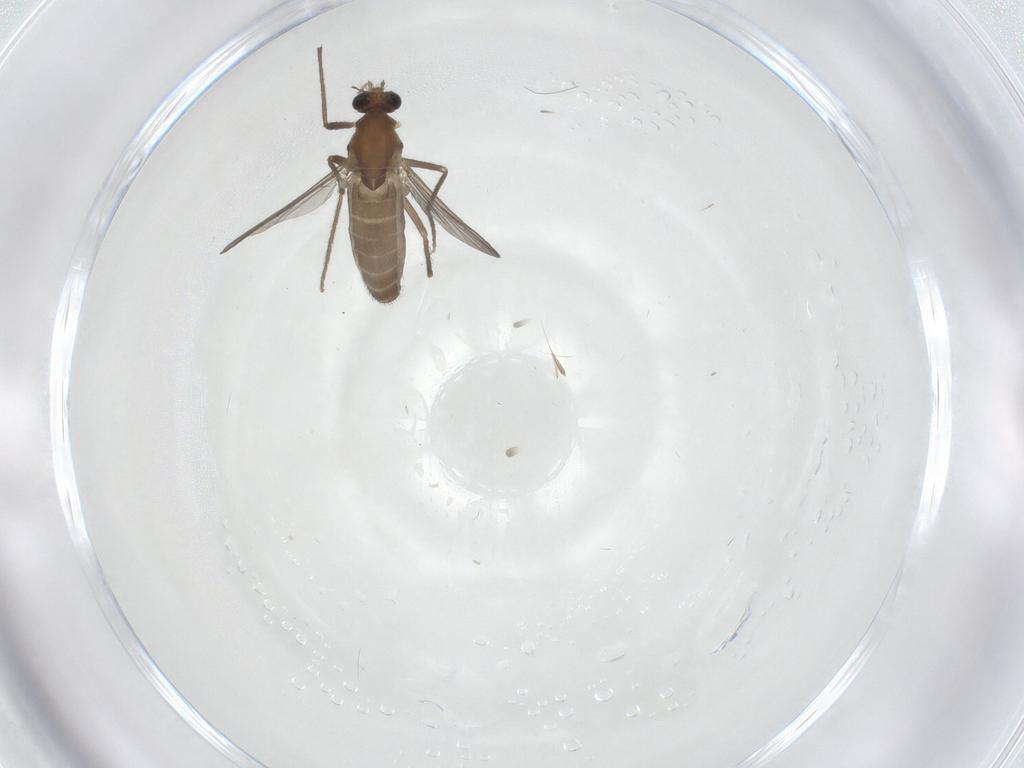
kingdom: Animalia
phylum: Arthropoda
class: Insecta
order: Diptera
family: Chironomidae
